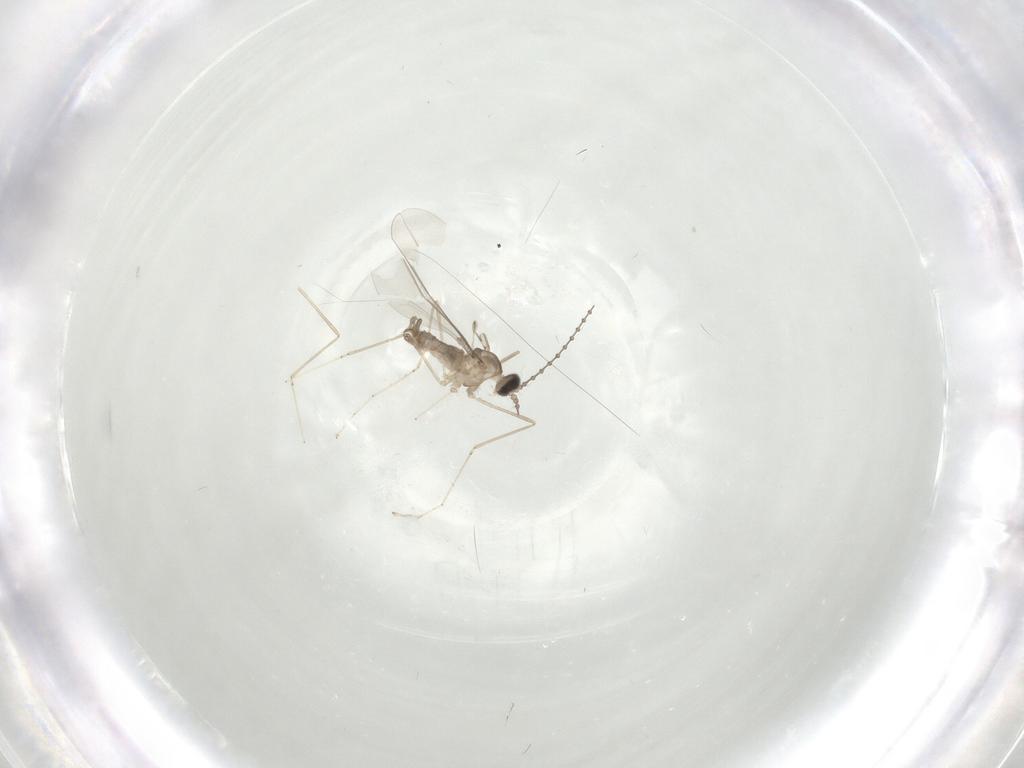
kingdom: Animalia
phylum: Arthropoda
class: Insecta
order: Diptera
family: Cecidomyiidae
